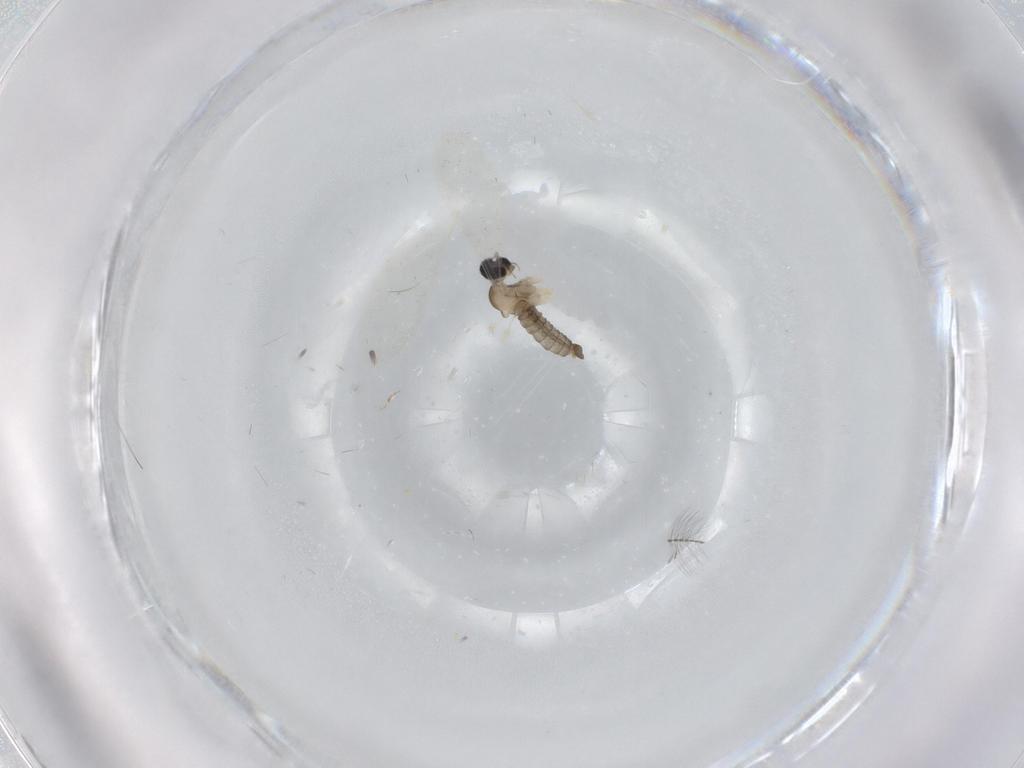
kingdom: Animalia
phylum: Arthropoda
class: Insecta
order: Diptera
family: Cecidomyiidae
